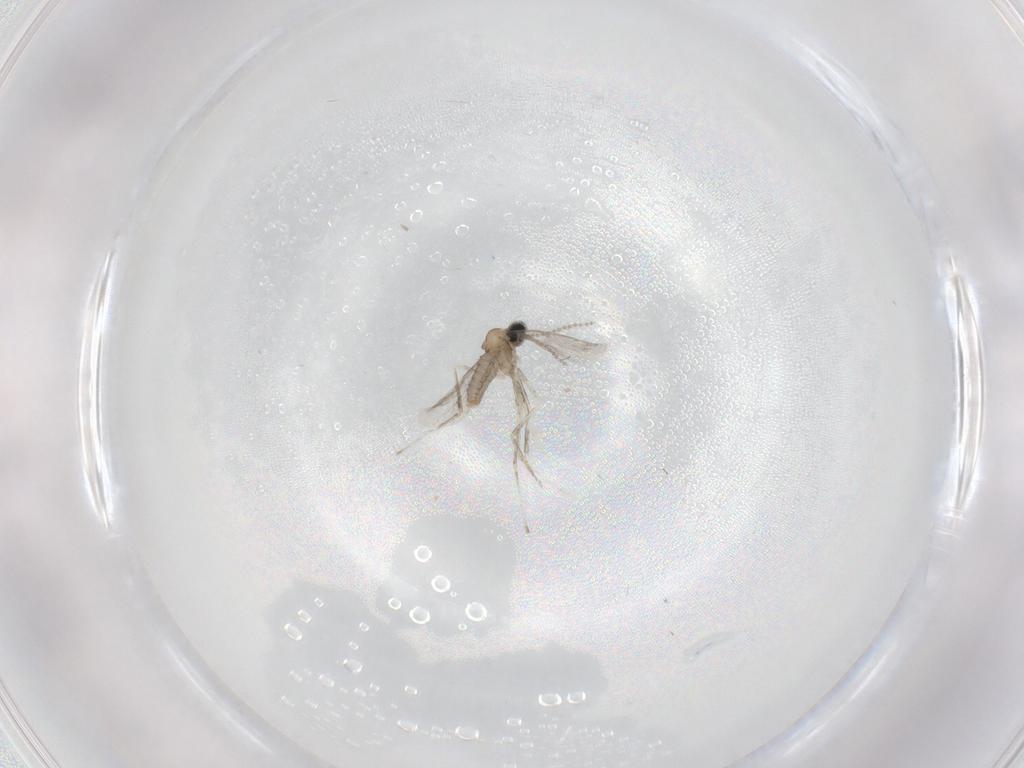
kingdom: Animalia
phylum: Arthropoda
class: Insecta
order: Diptera
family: Cecidomyiidae
